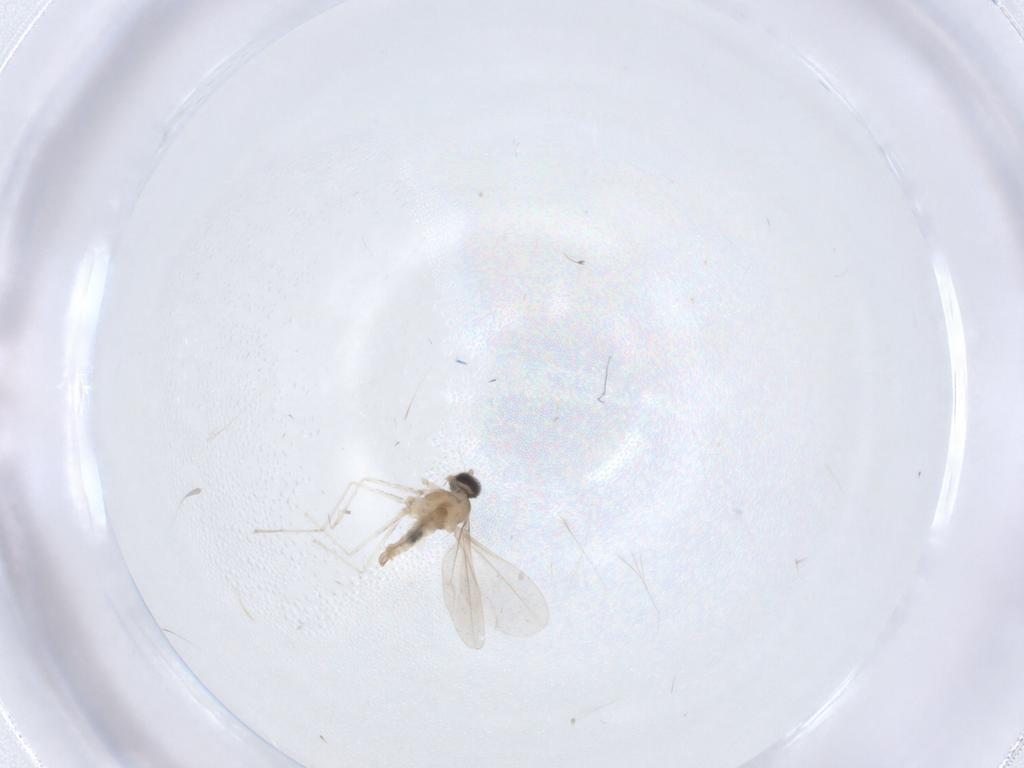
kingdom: Animalia
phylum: Arthropoda
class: Insecta
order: Diptera
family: Cecidomyiidae
